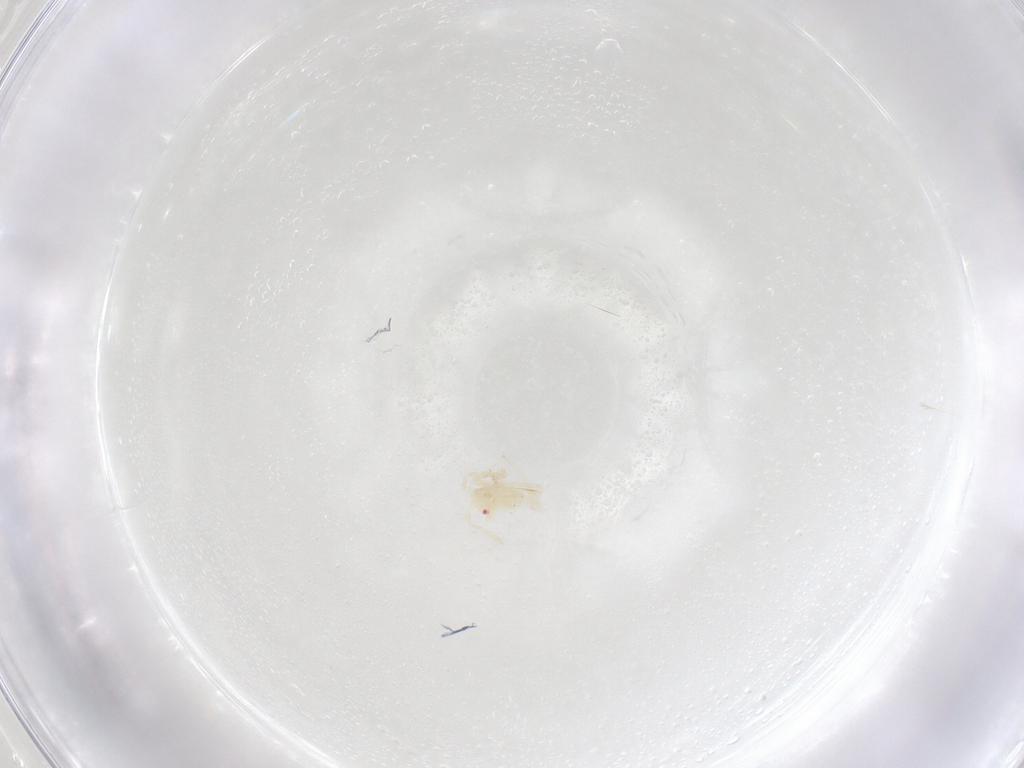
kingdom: Animalia
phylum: Arthropoda
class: Insecta
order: Hemiptera
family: Miridae
